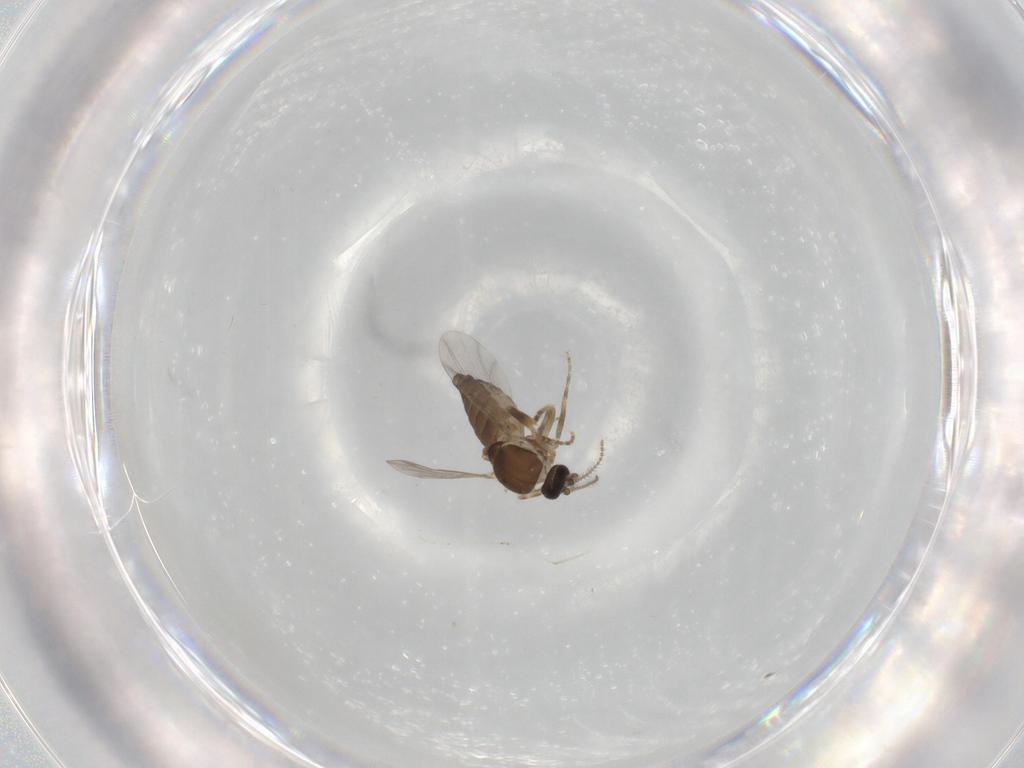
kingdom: Animalia
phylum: Arthropoda
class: Insecta
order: Diptera
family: Ceratopogonidae
